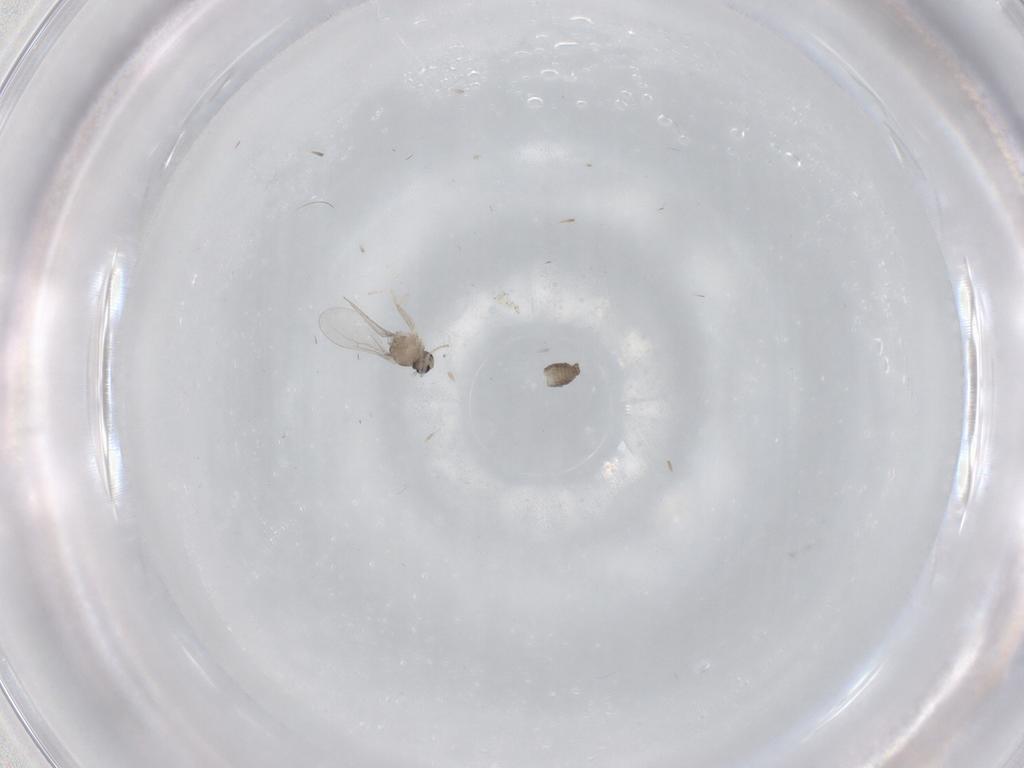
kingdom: Animalia
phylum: Arthropoda
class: Insecta
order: Diptera
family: Cecidomyiidae
